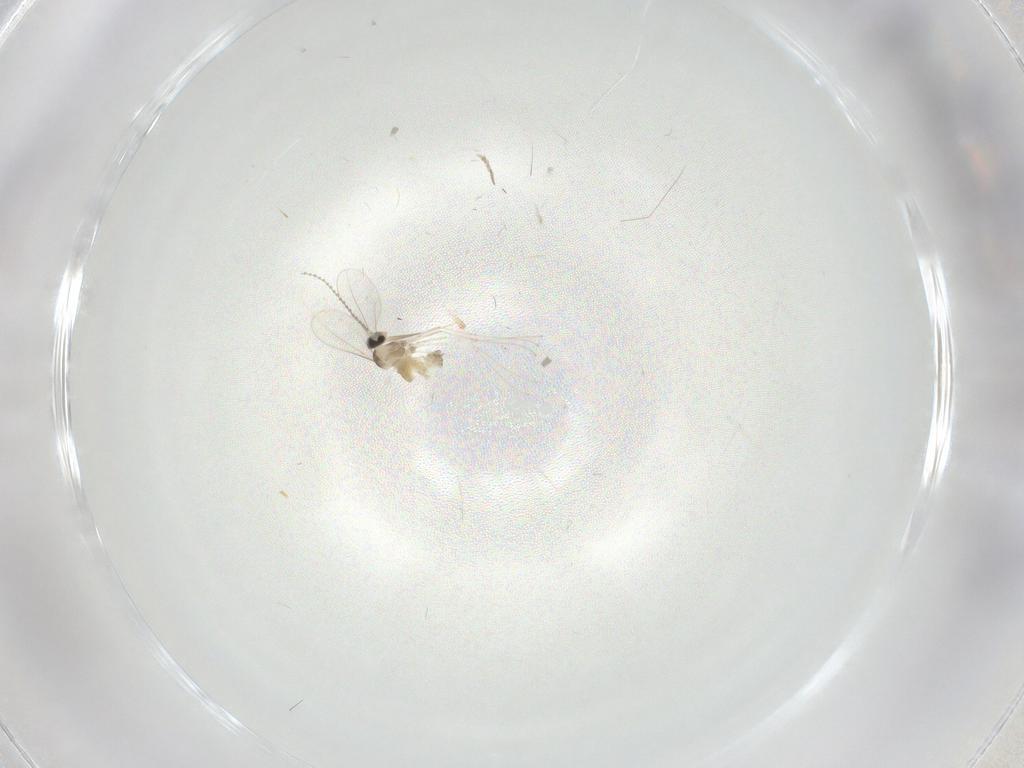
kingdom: Animalia
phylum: Arthropoda
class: Insecta
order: Diptera
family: Cecidomyiidae
